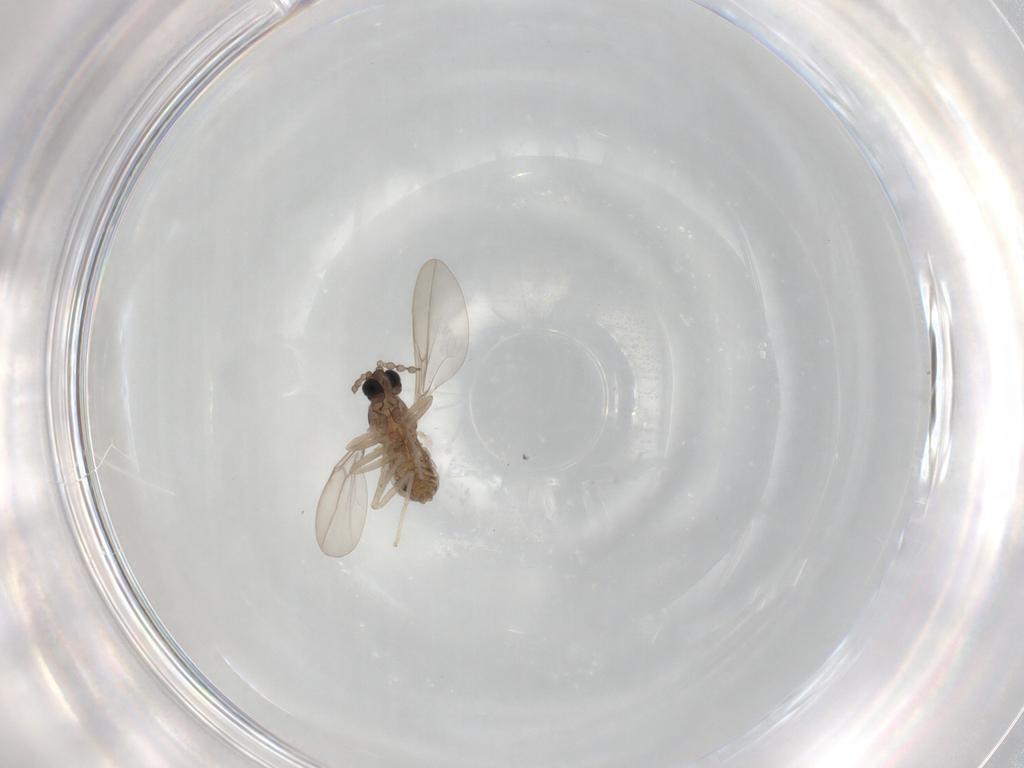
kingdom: Animalia
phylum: Arthropoda
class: Insecta
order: Diptera
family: Cecidomyiidae
